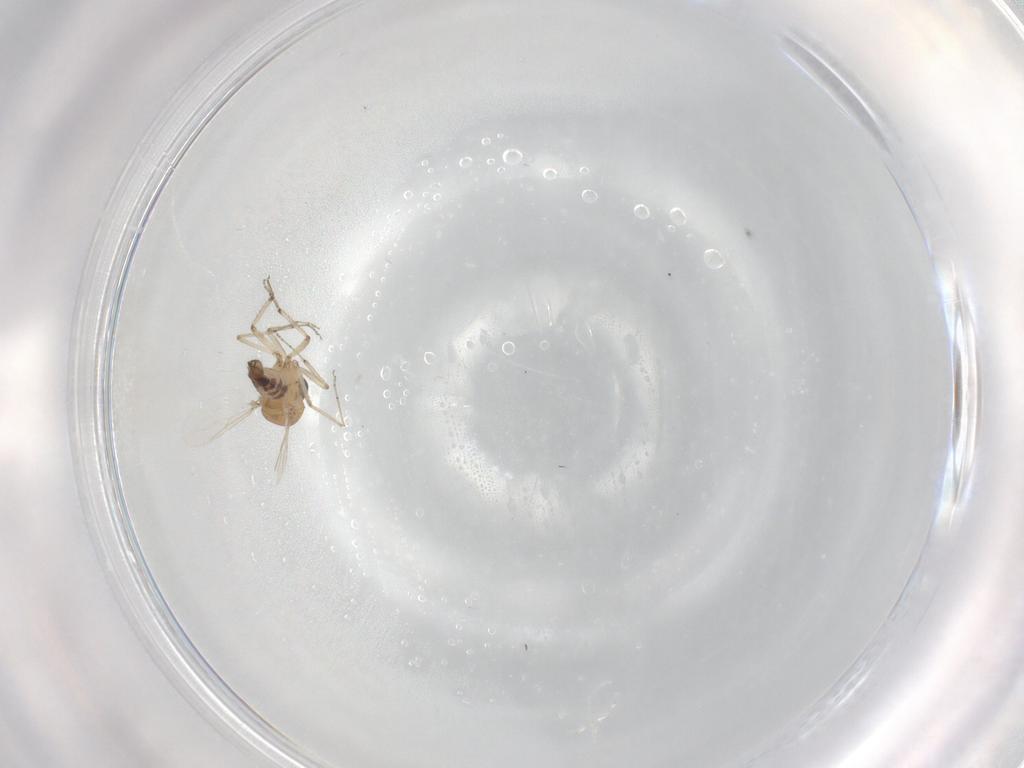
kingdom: Animalia
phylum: Arthropoda
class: Insecta
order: Diptera
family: Ceratopogonidae
